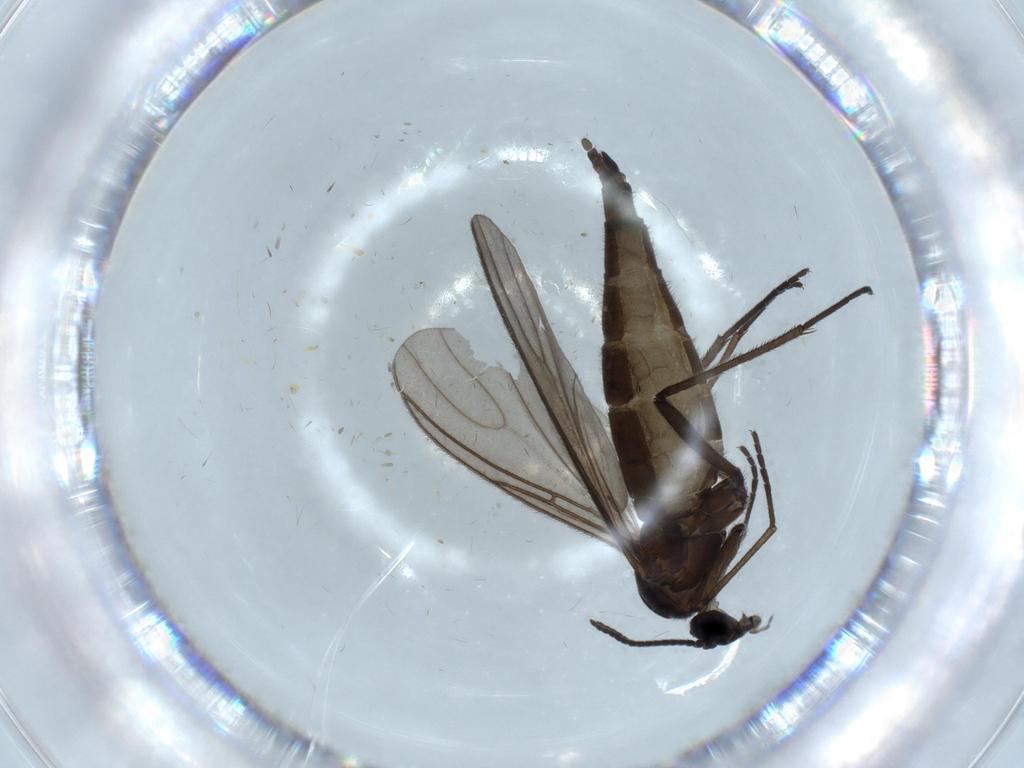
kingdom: Animalia
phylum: Arthropoda
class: Insecta
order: Diptera
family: Sciaridae
